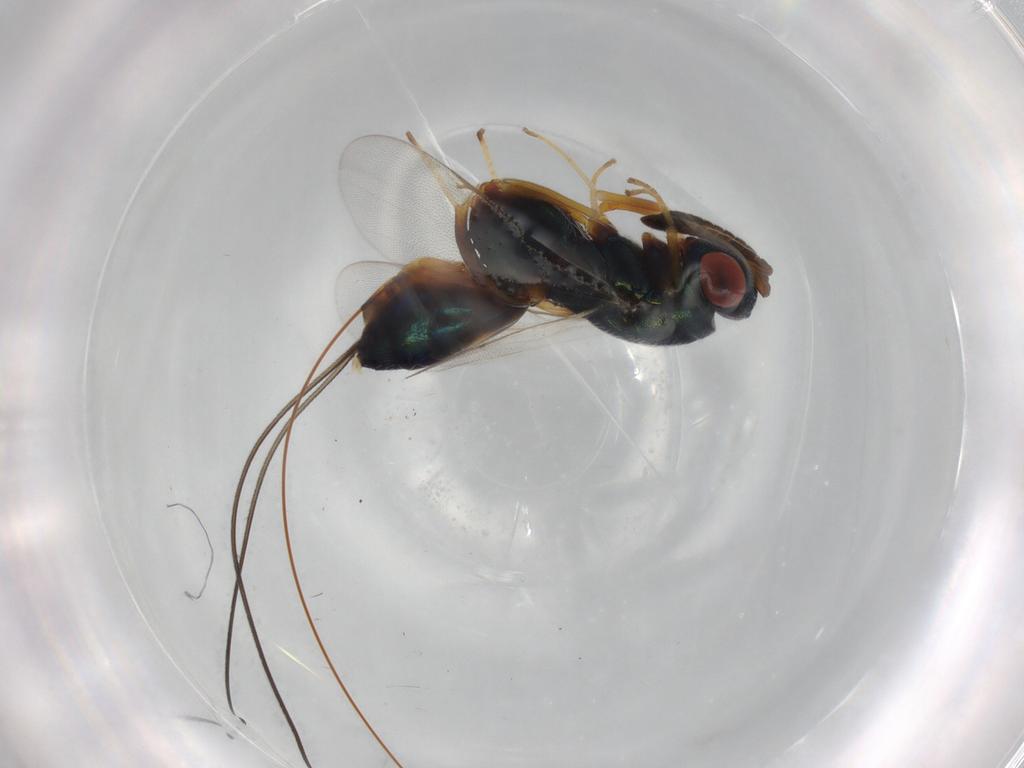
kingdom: Animalia
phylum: Arthropoda
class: Insecta
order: Hymenoptera
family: Torymidae
